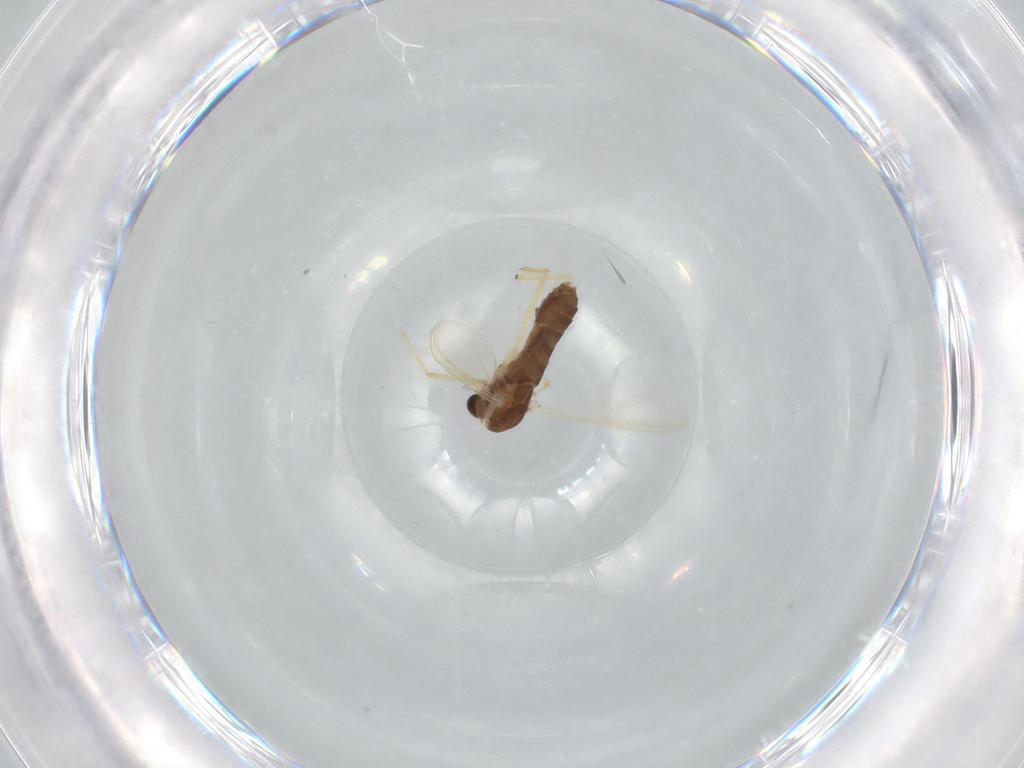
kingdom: Animalia
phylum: Arthropoda
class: Insecta
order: Diptera
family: Chironomidae
